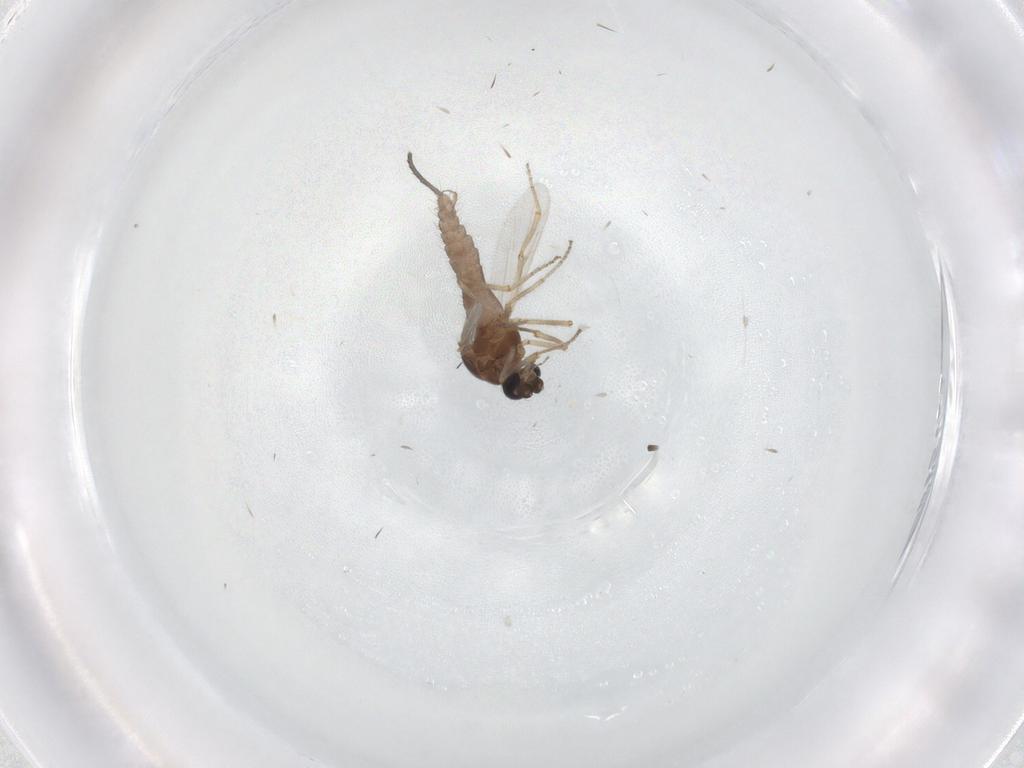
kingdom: Animalia
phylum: Arthropoda
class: Insecta
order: Diptera
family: Ceratopogonidae
